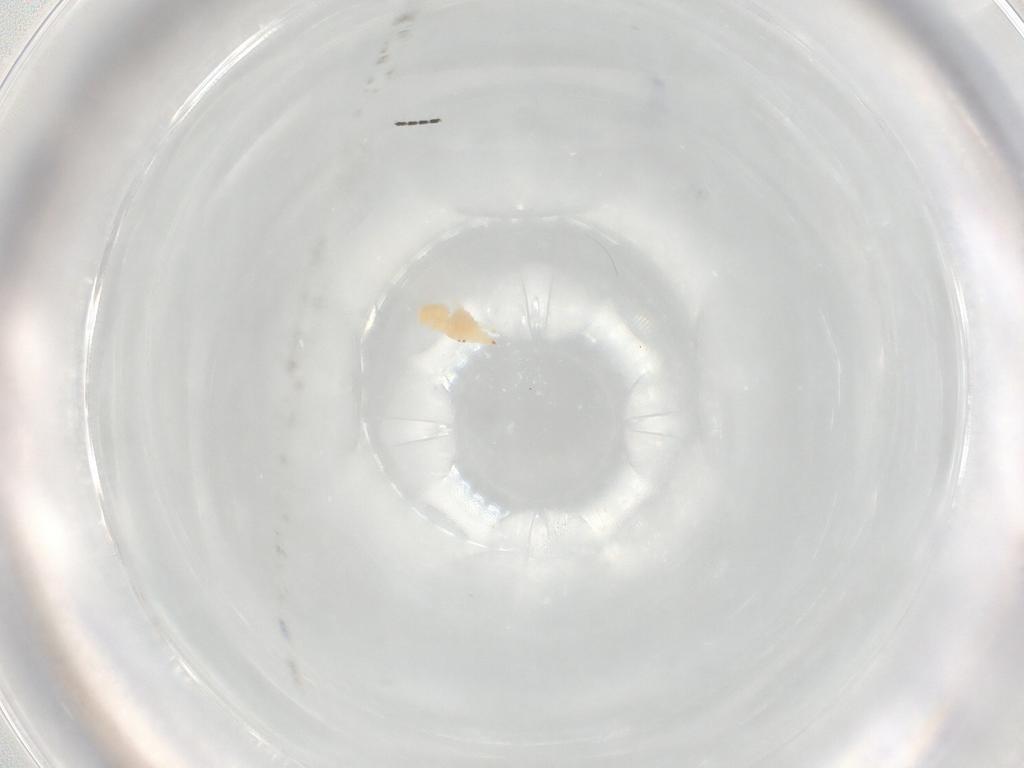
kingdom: Animalia
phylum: Arthropoda
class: Arachnida
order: Trombidiformes
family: Bdellidae
